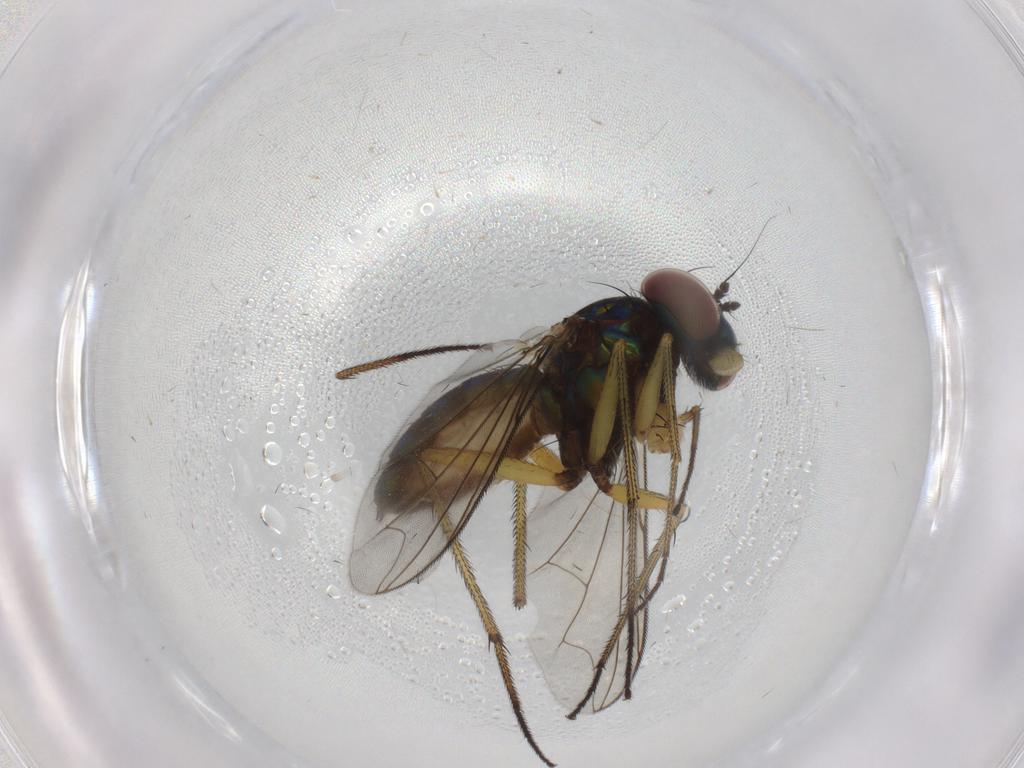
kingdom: Animalia
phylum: Arthropoda
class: Insecta
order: Diptera
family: Dolichopodidae
